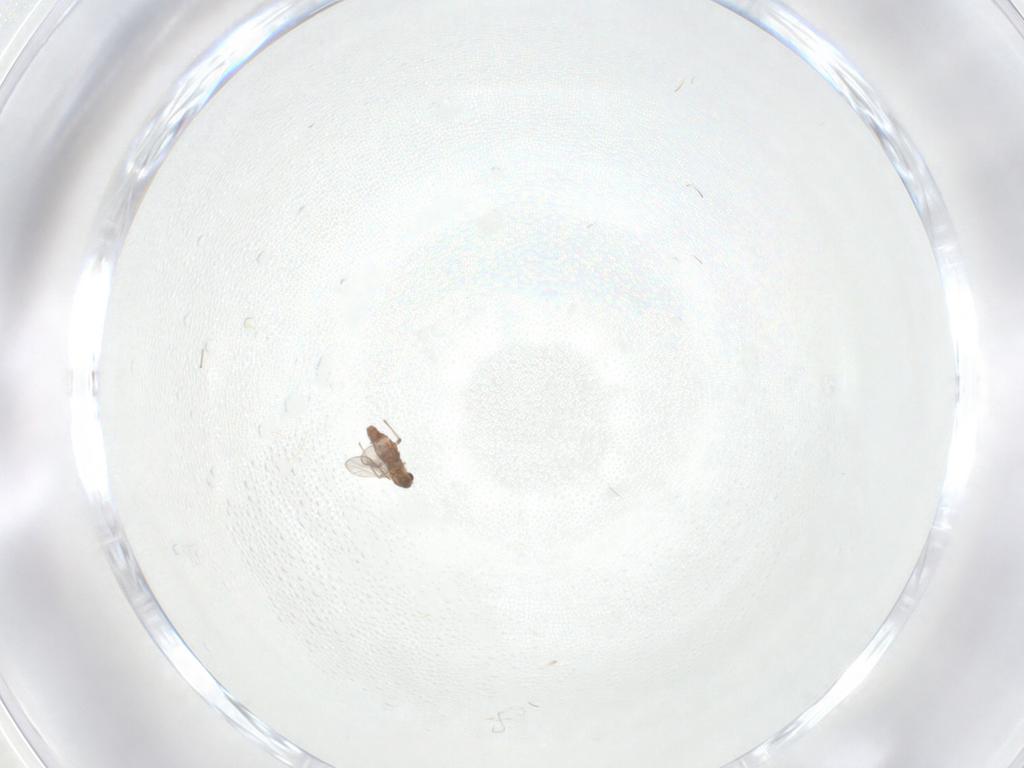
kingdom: Animalia
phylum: Arthropoda
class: Insecta
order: Diptera
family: Chironomidae
